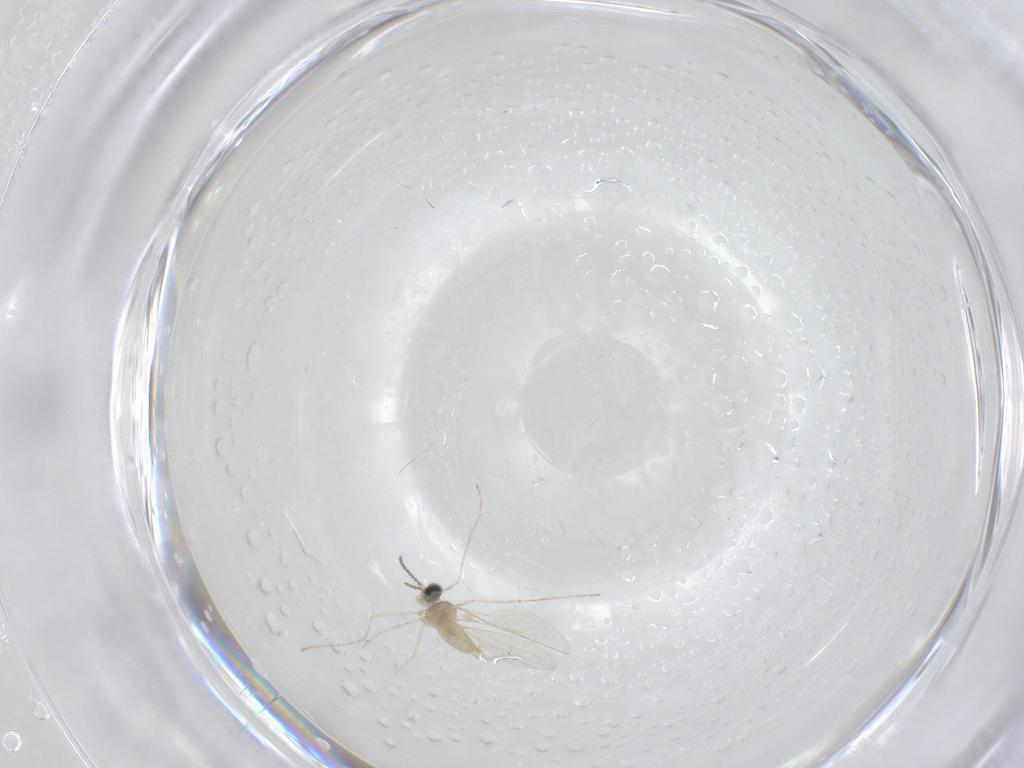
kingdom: Animalia
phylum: Arthropoda
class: Insecta
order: Diptera
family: Cecidomyiidae
